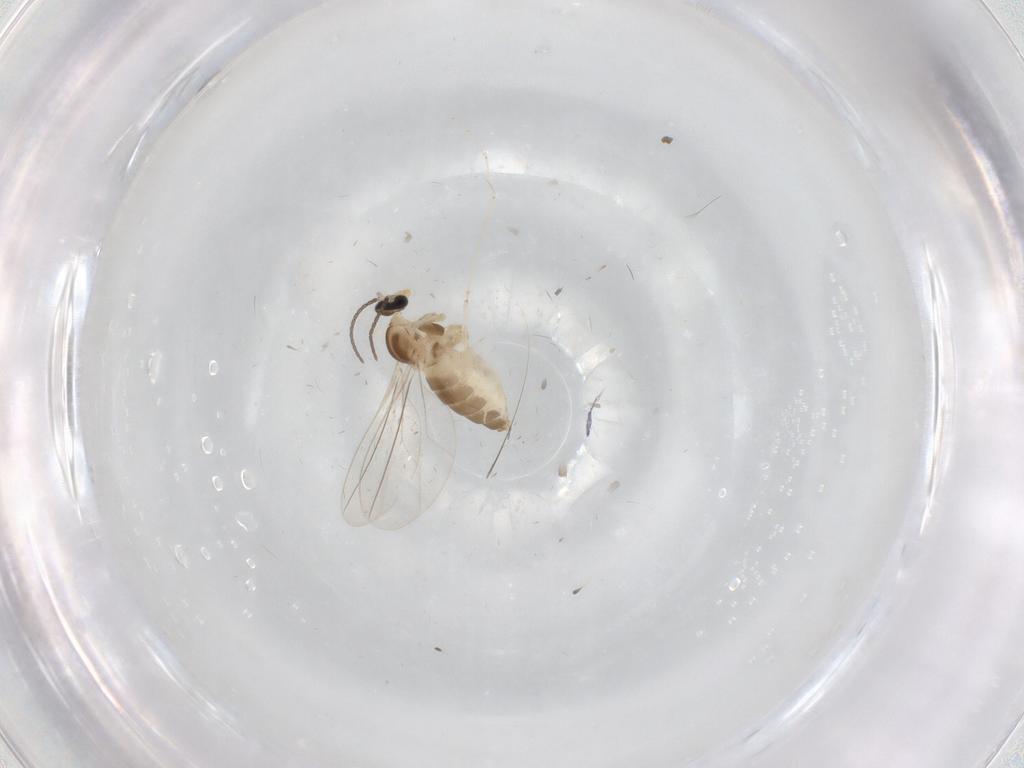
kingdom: Animalia
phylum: Arthropoda
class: Insecta
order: Diptera
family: Cecidomyiidae
